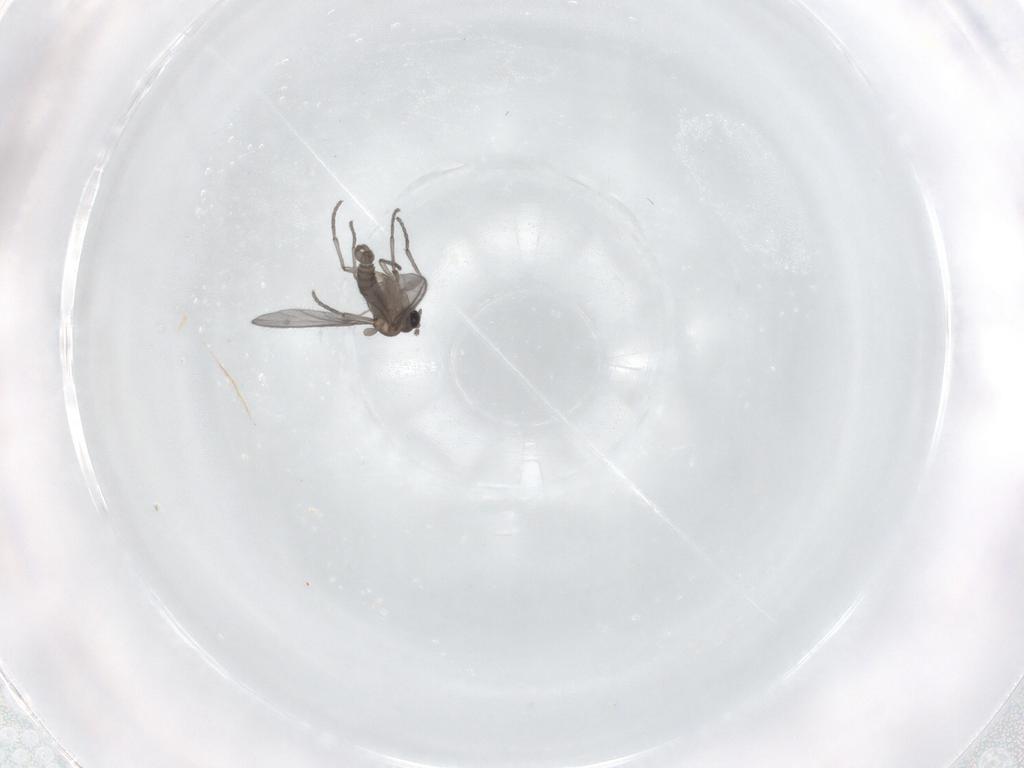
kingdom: Animalia
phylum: Arthropoda
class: Insecta
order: Diptera
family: Sciaridae
